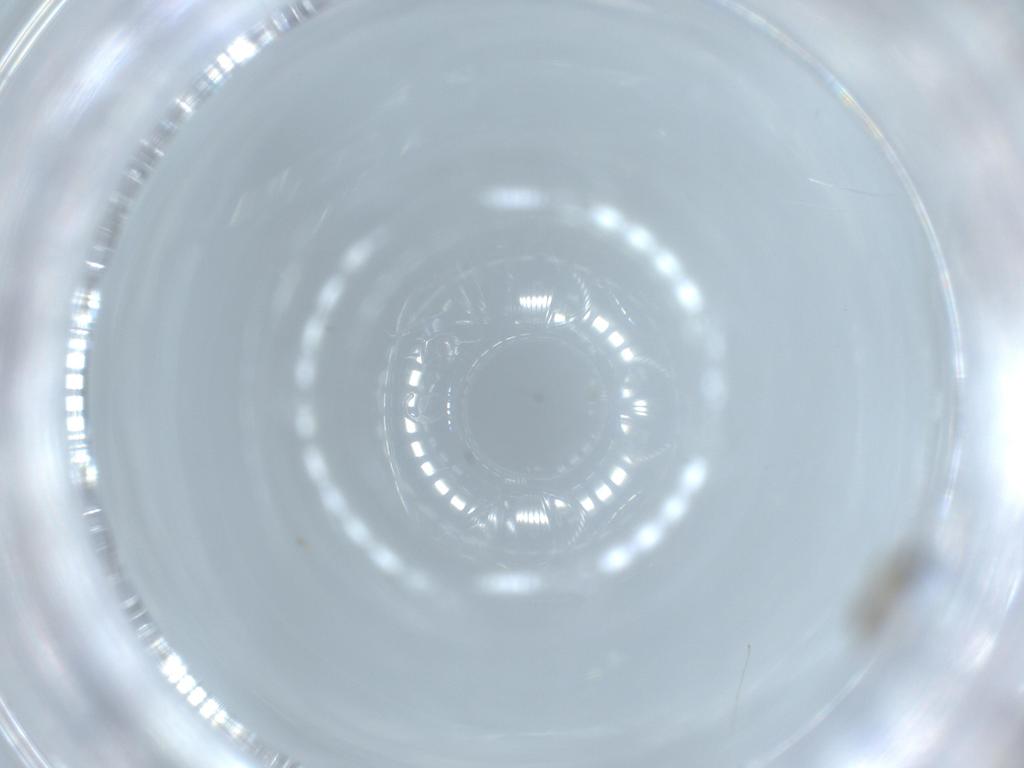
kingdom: Animalia
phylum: Arthropoda
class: Insecta
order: Diptera
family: Cecidomyiidae
